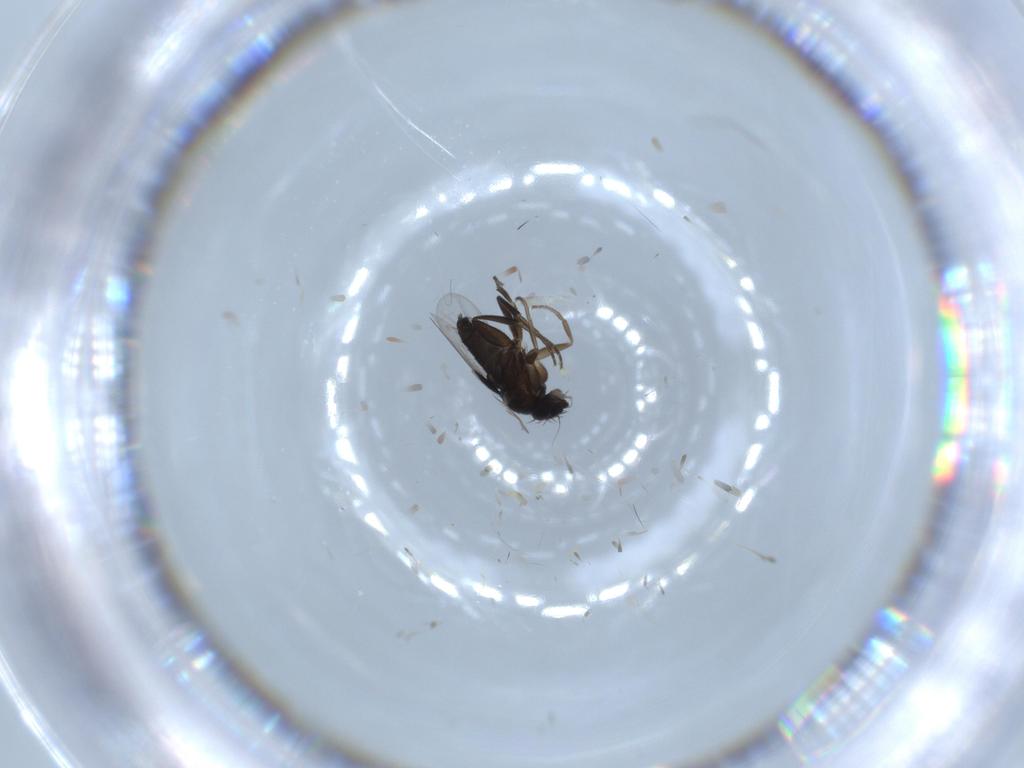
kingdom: Animalia
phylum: Arthropoda
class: Insecta
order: Diptera
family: Phoridae
